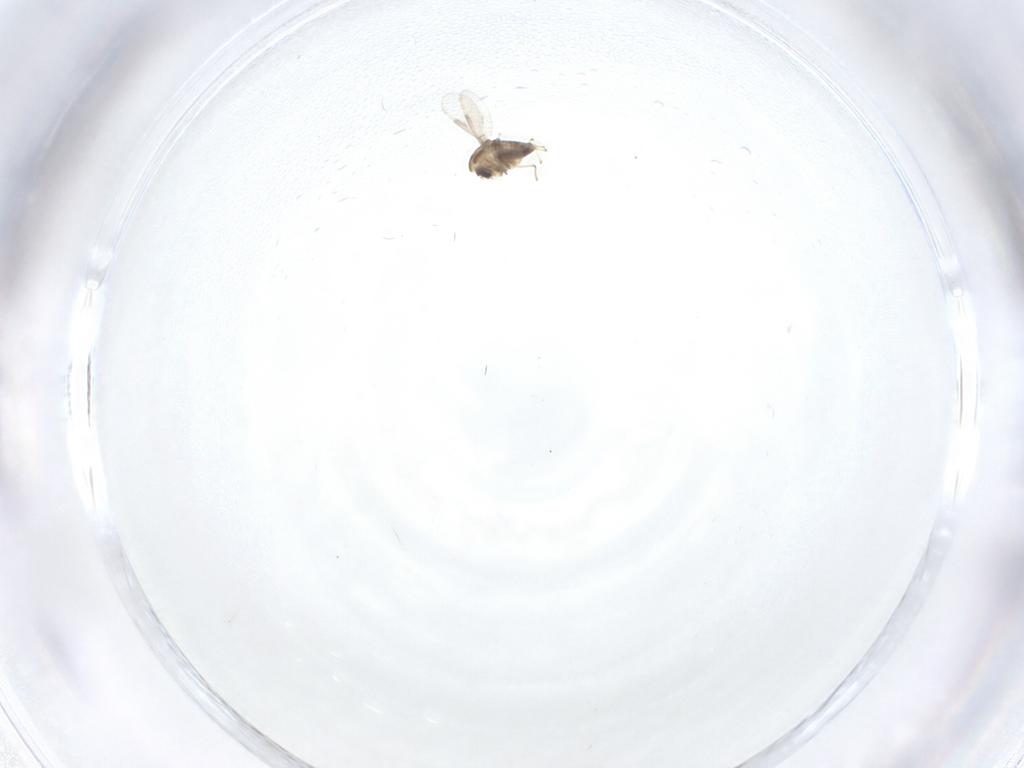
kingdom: Animalia
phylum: Arthropoda
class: Insecta
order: Diptera
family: Chironomidae
